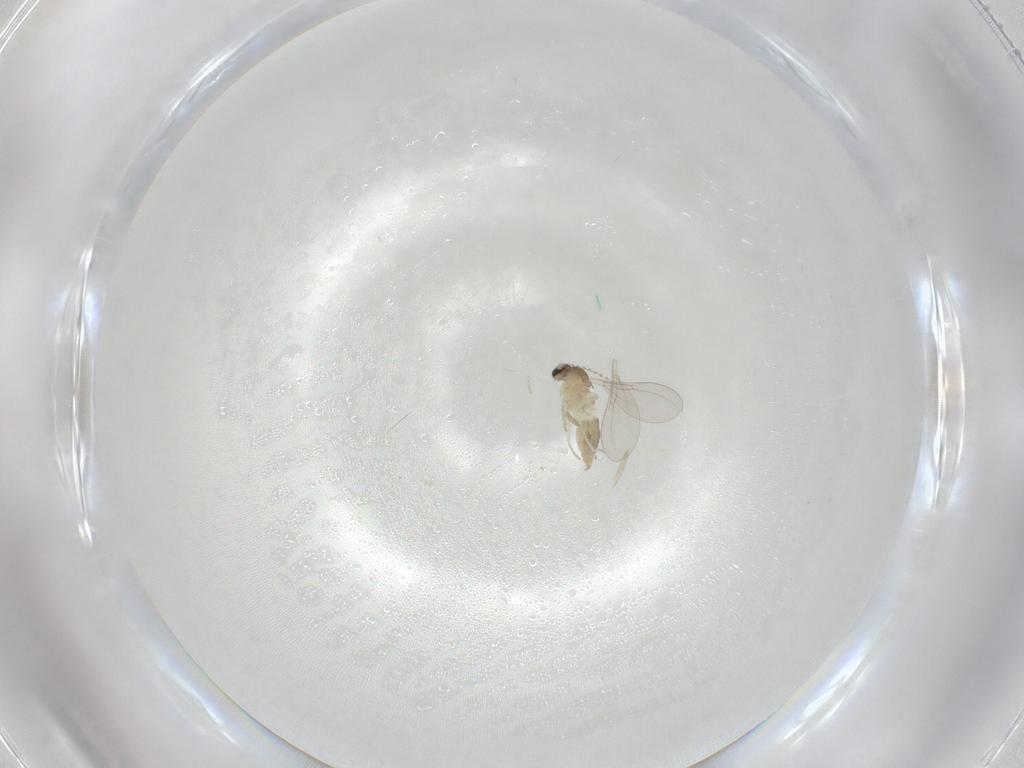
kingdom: Animalia
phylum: Arthropoda
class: Insecta
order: Diptera
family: Cecidomyiidae
